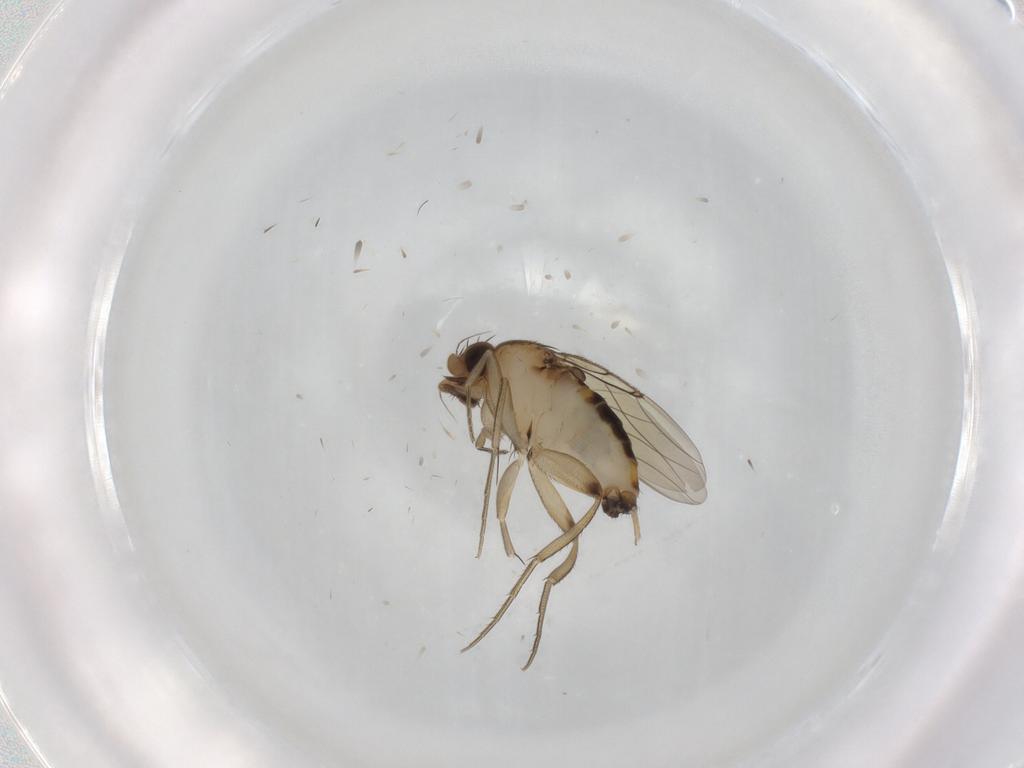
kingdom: Animalia
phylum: Arthropoda
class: Insecta
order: Diptera
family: Phoridae
